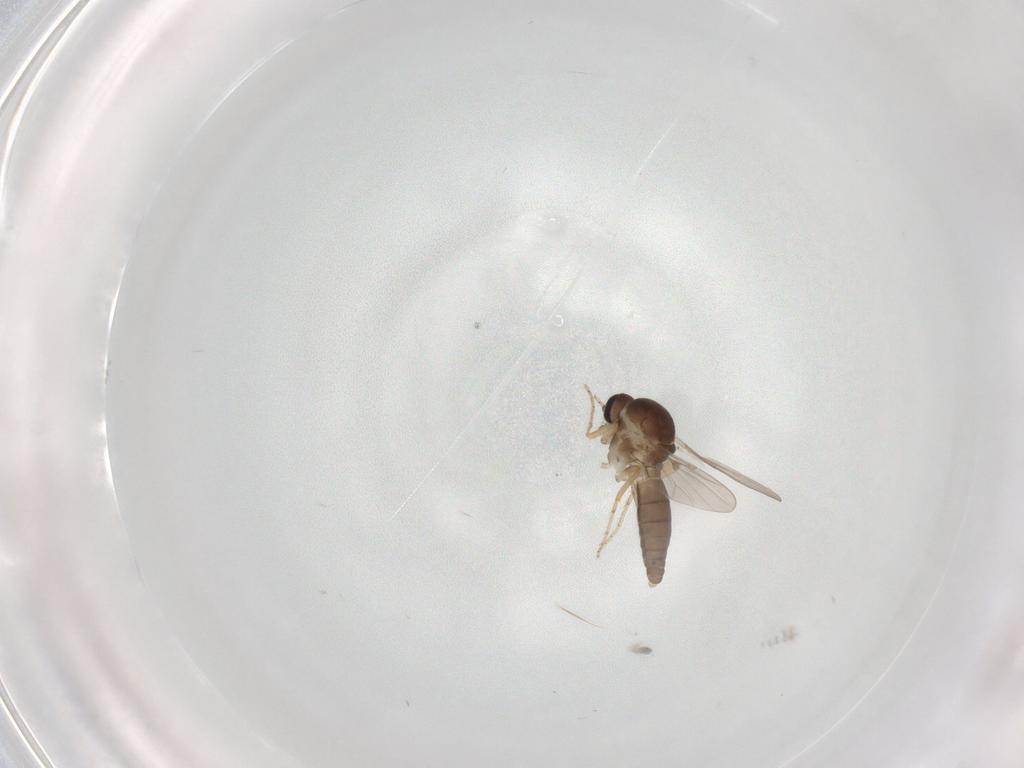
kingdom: Animalia
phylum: Arthropoda
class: Insecta
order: Diptera
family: Ceratopogonidae
